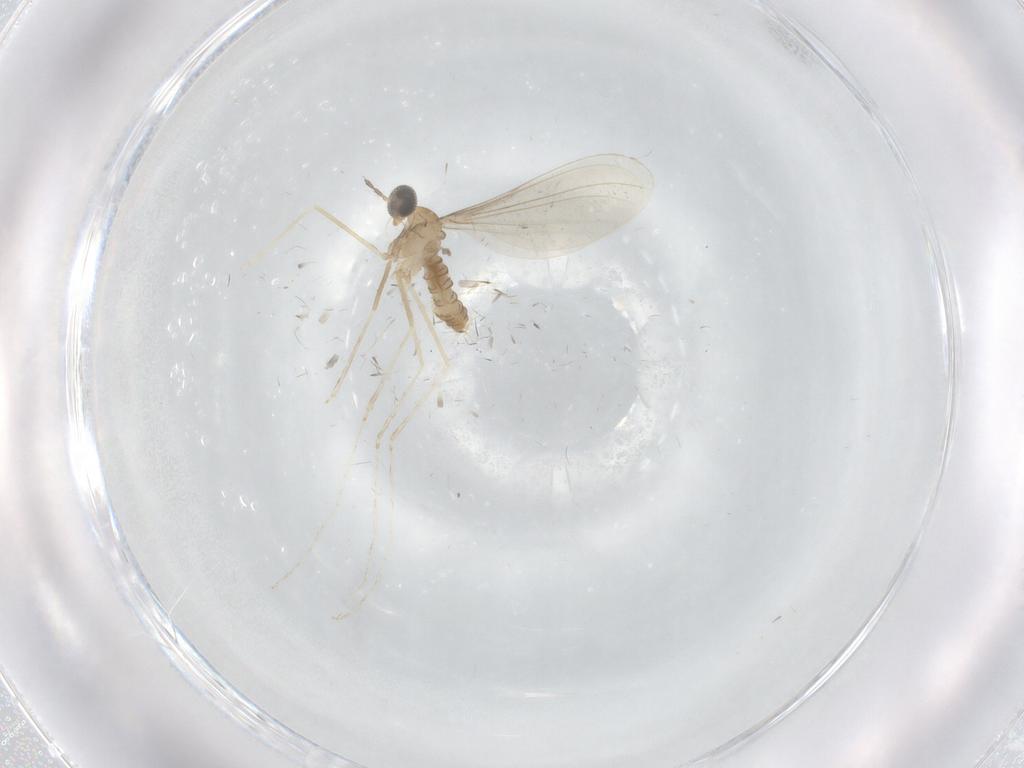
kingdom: Animalia
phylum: Arthropoda
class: Insecta
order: Diptera
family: Cecidomyiidae
